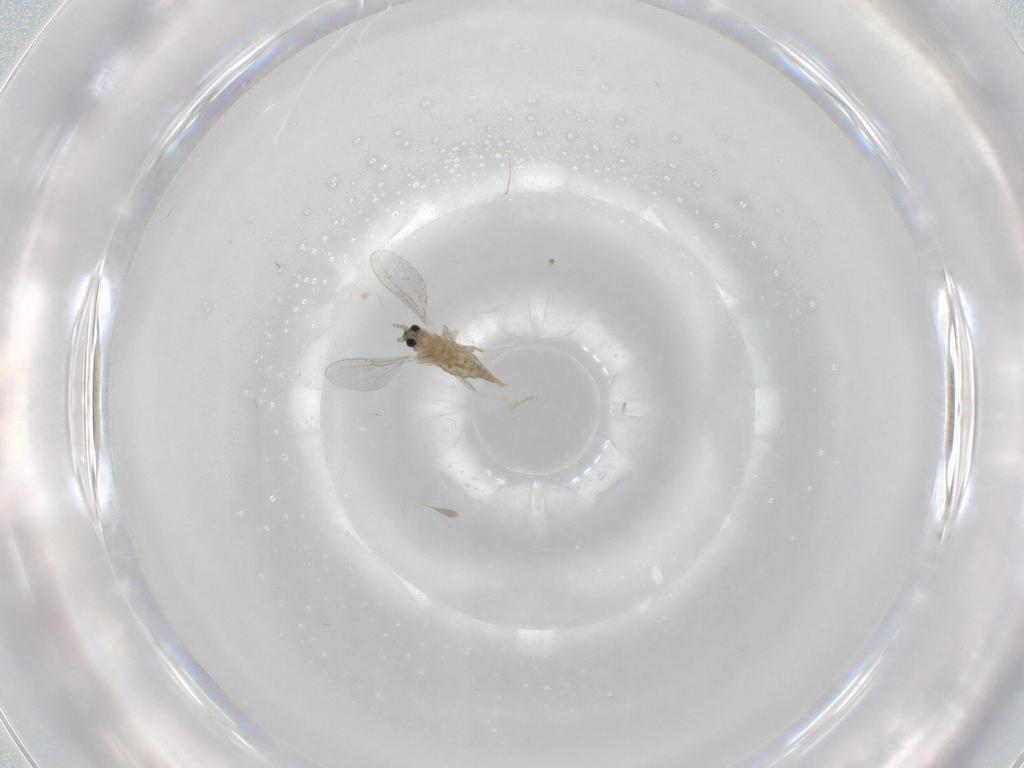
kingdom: Animalia
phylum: Arthropoda
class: Insecta
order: Diptera
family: Cecidomyiidae
